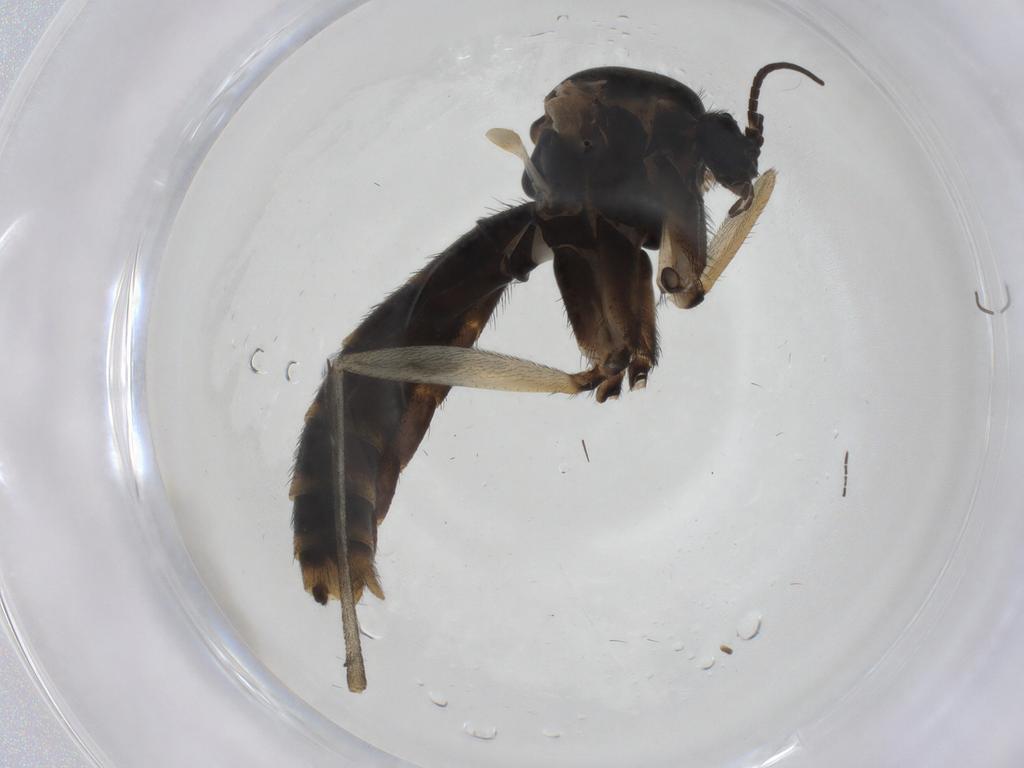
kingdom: Animalia
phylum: Arthropoda
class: Insecta
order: Diptera
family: Keroplatidae
